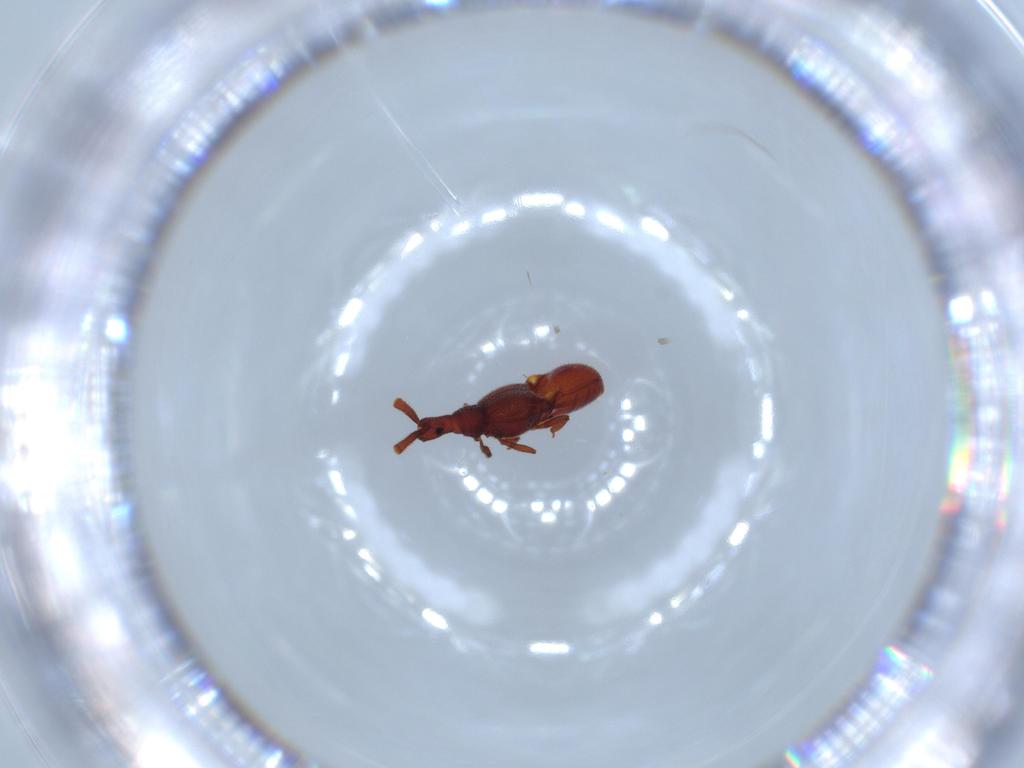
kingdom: Animalia
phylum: Arthropoda
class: Insecta
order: Coleoptera
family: Staphylinidae
